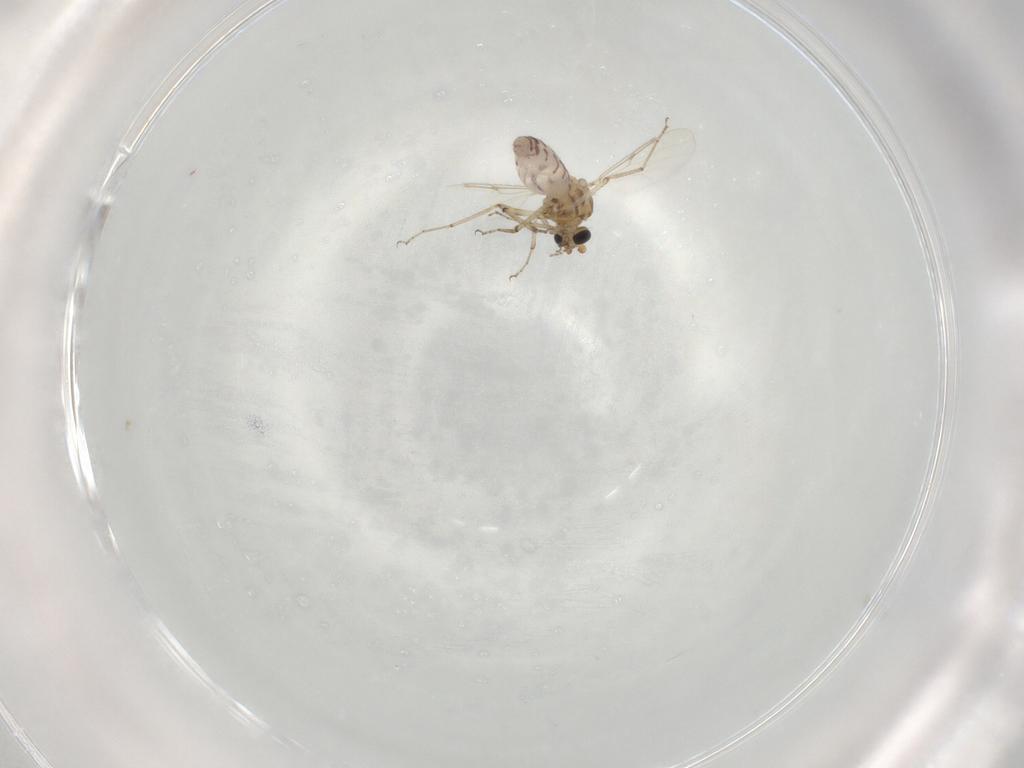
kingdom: Animalia
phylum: Arthropoda
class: Insecta
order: Diptera
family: Ceratopogonidae
